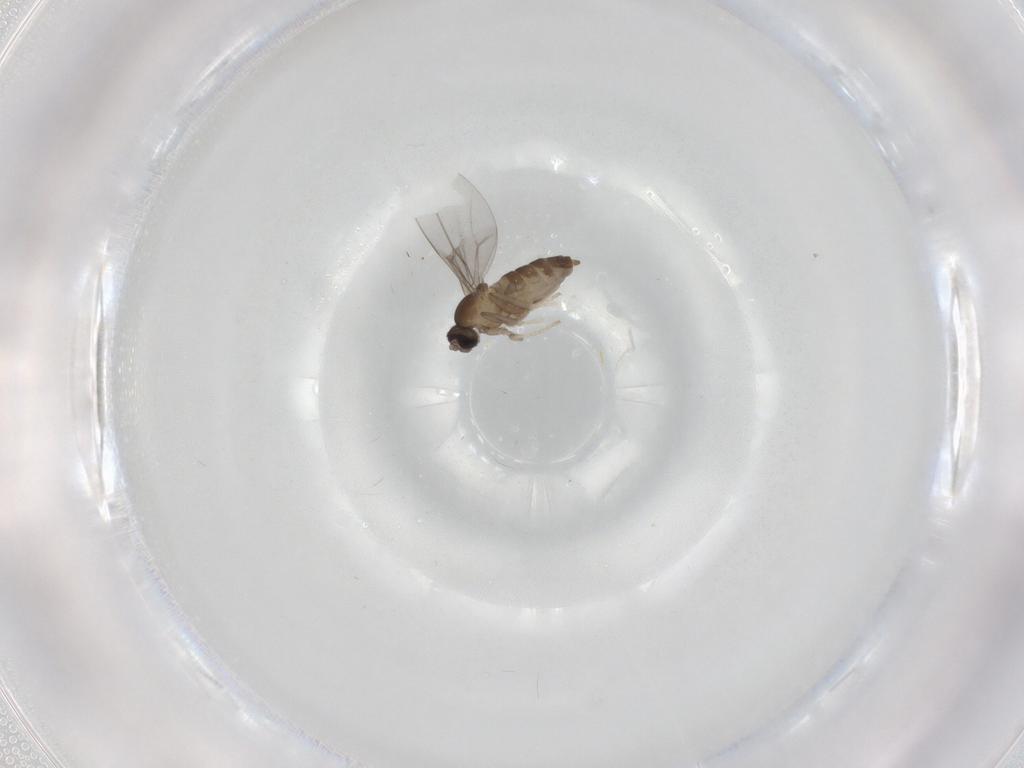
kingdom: Animalia
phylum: Arthropoda
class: Insecta
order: Diptera
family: Cecidomyiidae
